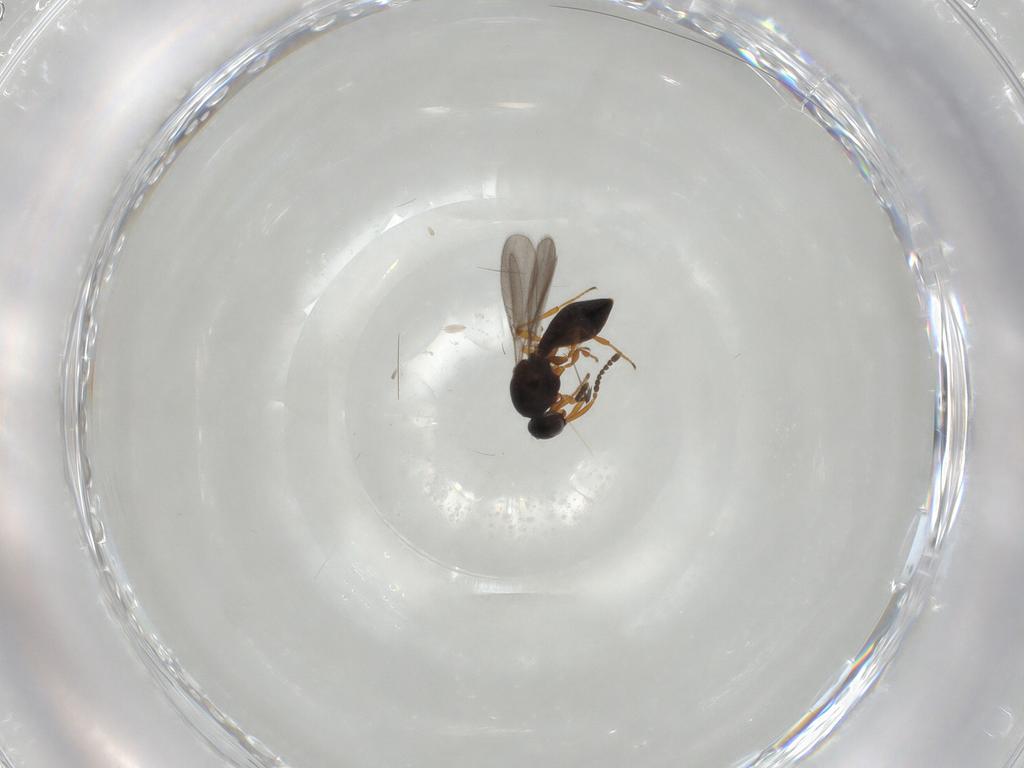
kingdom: Animalia
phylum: Arthropoda
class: Insecta
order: Hymenoptera
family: Platygastridae
